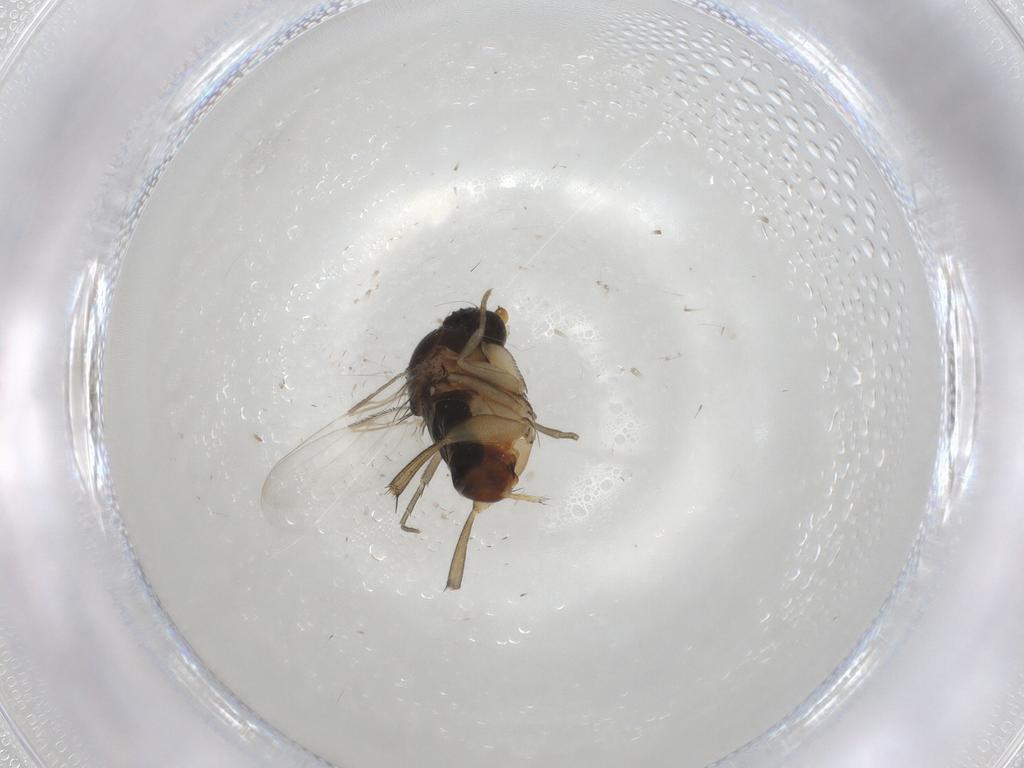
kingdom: Animalia
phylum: Arthropoda
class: Insecta
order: Diptera
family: Phoridae
